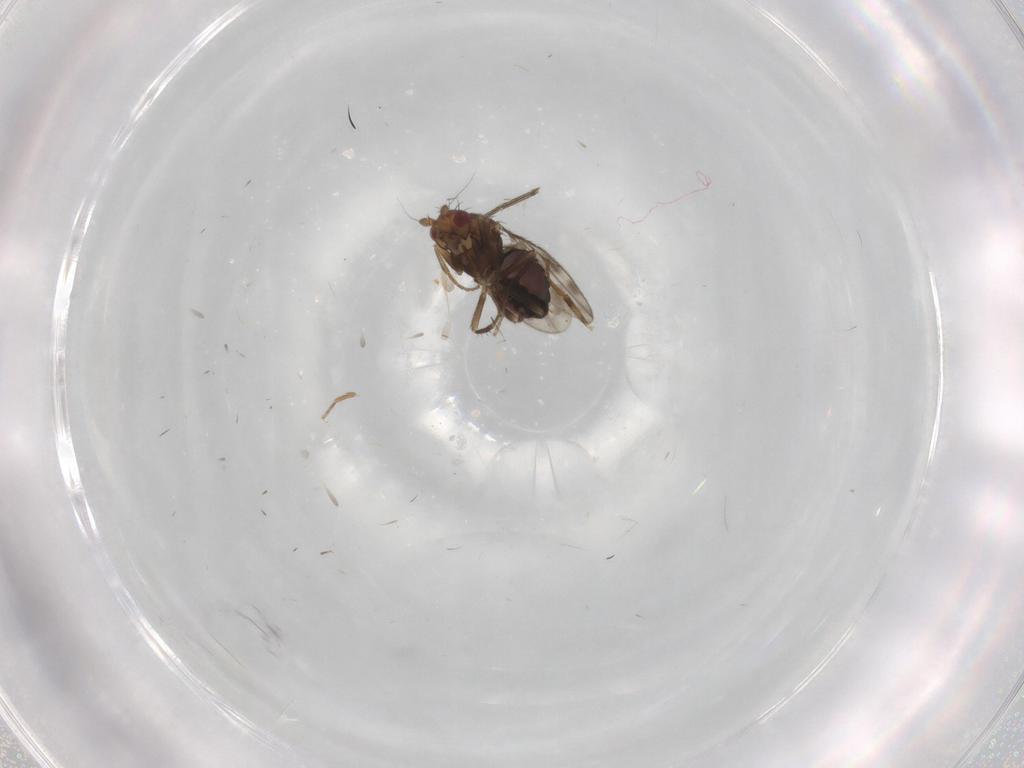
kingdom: Animalia
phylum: Arthropoda
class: Insecta
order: Diptera
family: Sphaeroceridae
